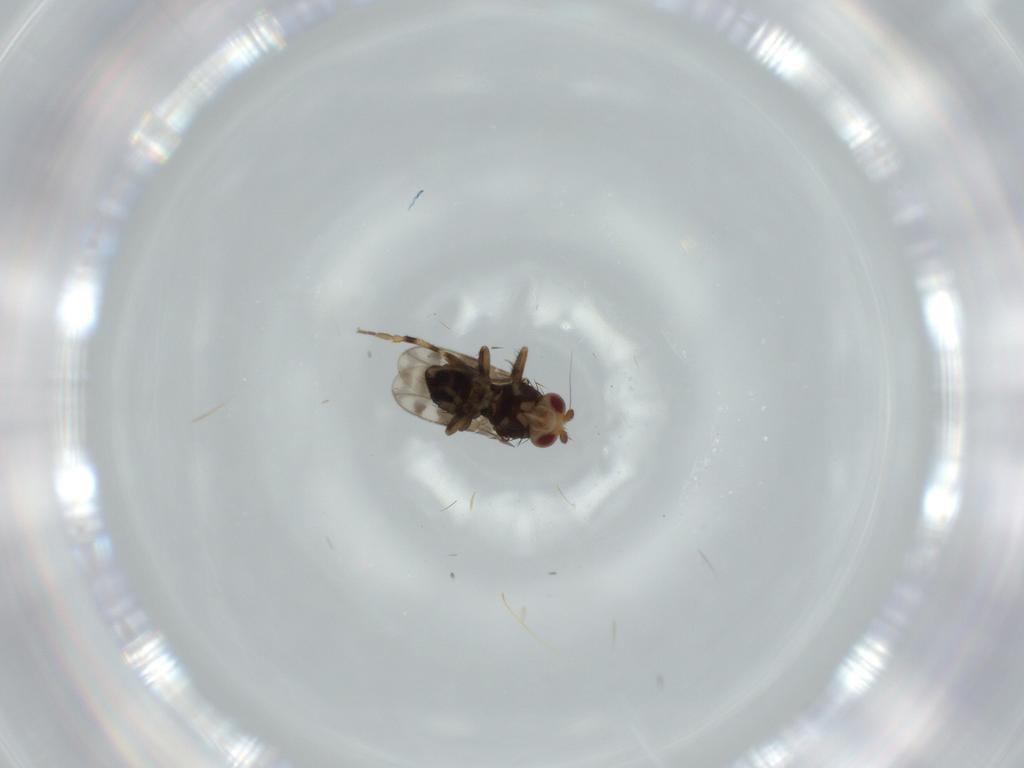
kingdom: Animalia
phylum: Arthropoda
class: Insecta
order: Diptera
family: Sphaeroceridae
